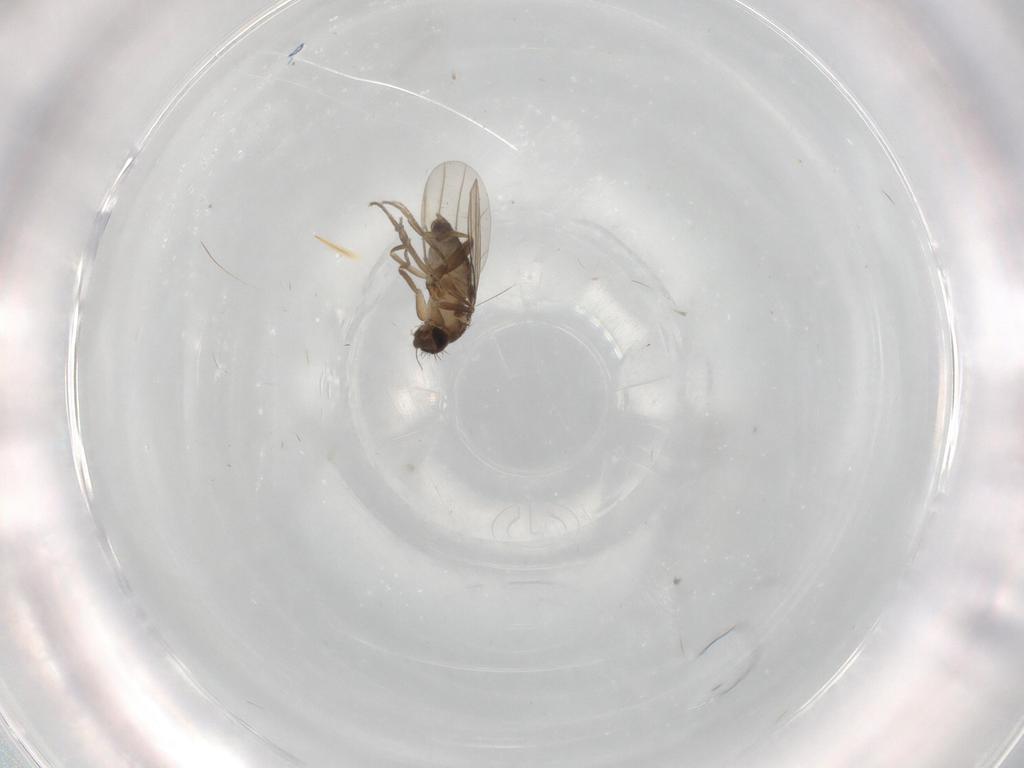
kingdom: Animalia
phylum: Arthropoda
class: Insecta
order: Diptera
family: Phoridae
